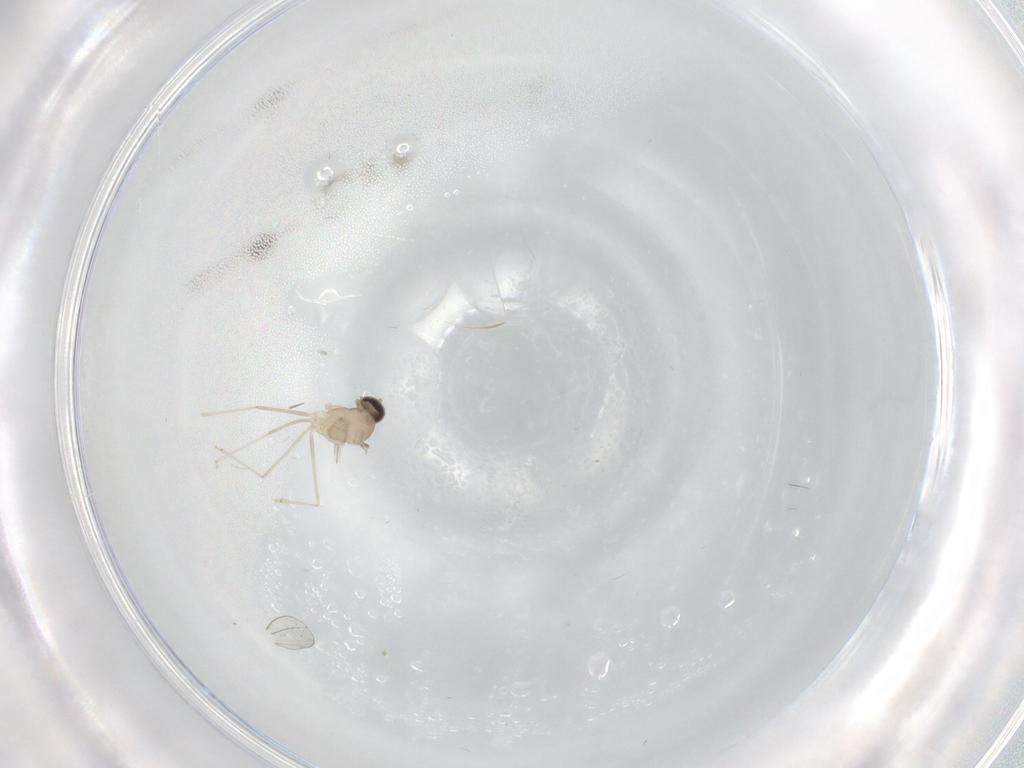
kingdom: Animalia
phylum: Arthropoda
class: Insecta
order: Diptera
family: Cecidomyiidae
